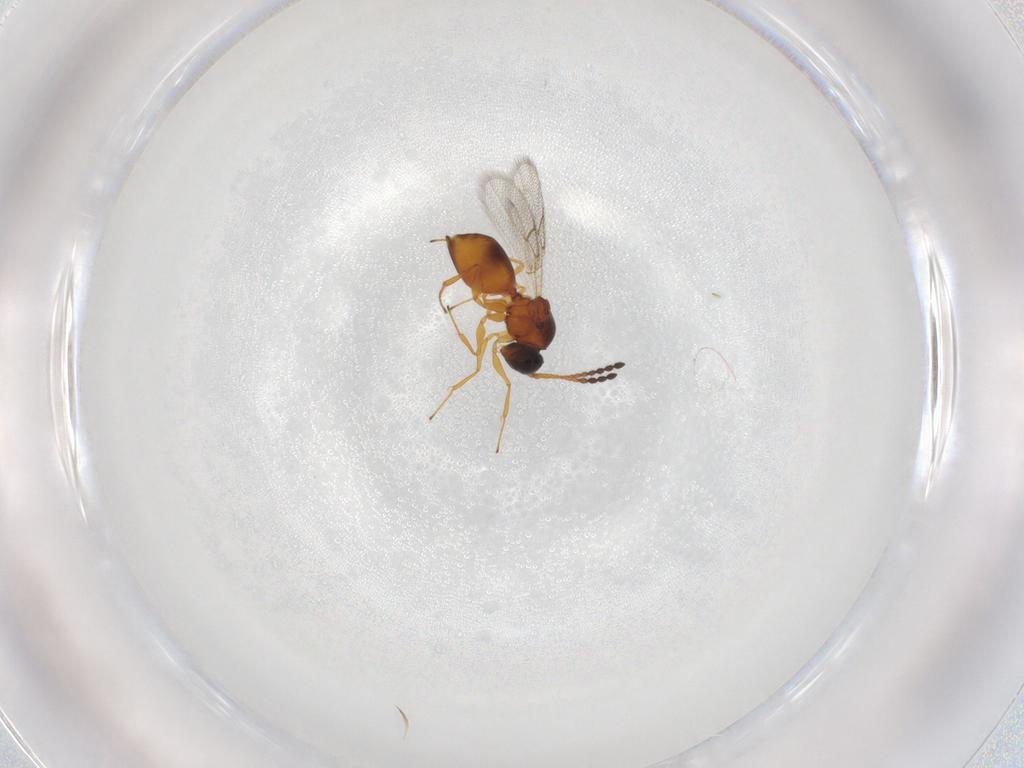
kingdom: Animalia
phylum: Arthropoda
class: Insecta
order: Hymenoptera
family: Figitidae
